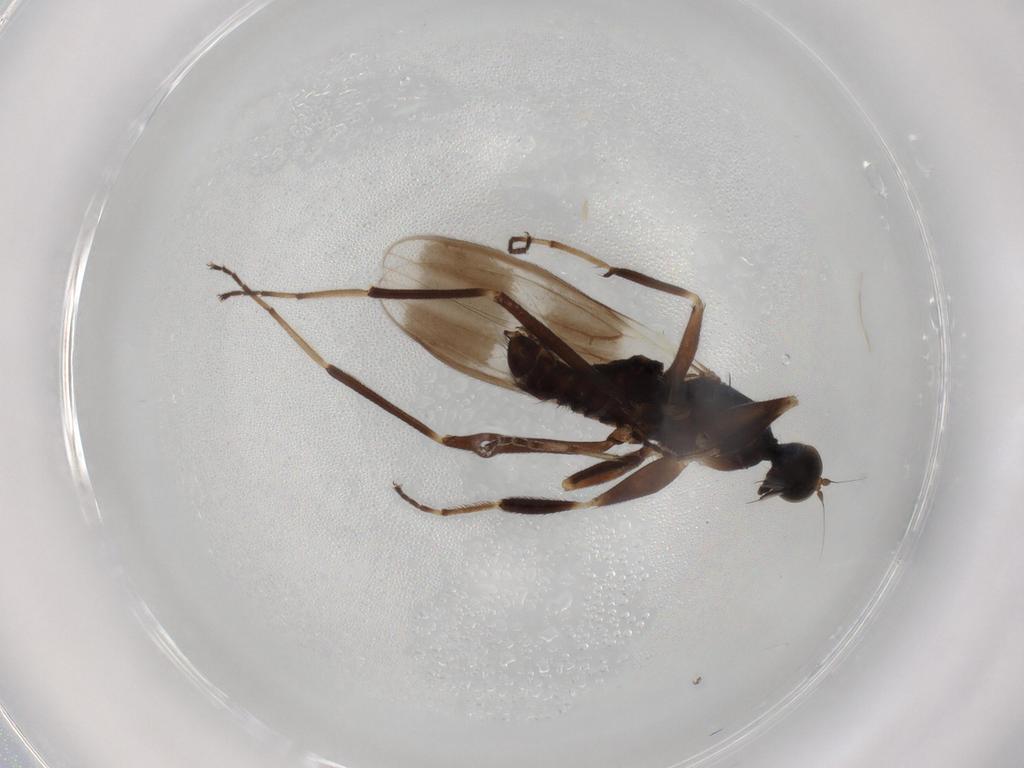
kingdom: Animalia
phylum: Arthropoda
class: Insecta
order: Diptera
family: Hybotidae
